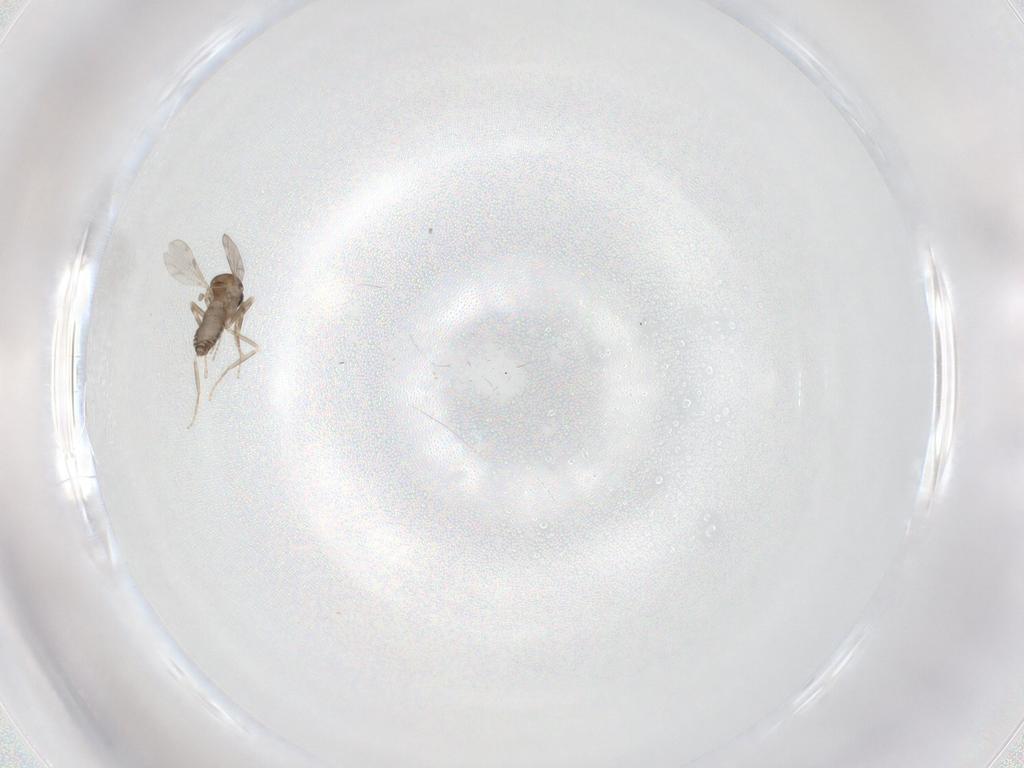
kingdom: Animalia
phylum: Arthropoda
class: Insecta
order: Diptera
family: Ceratopogonidae
